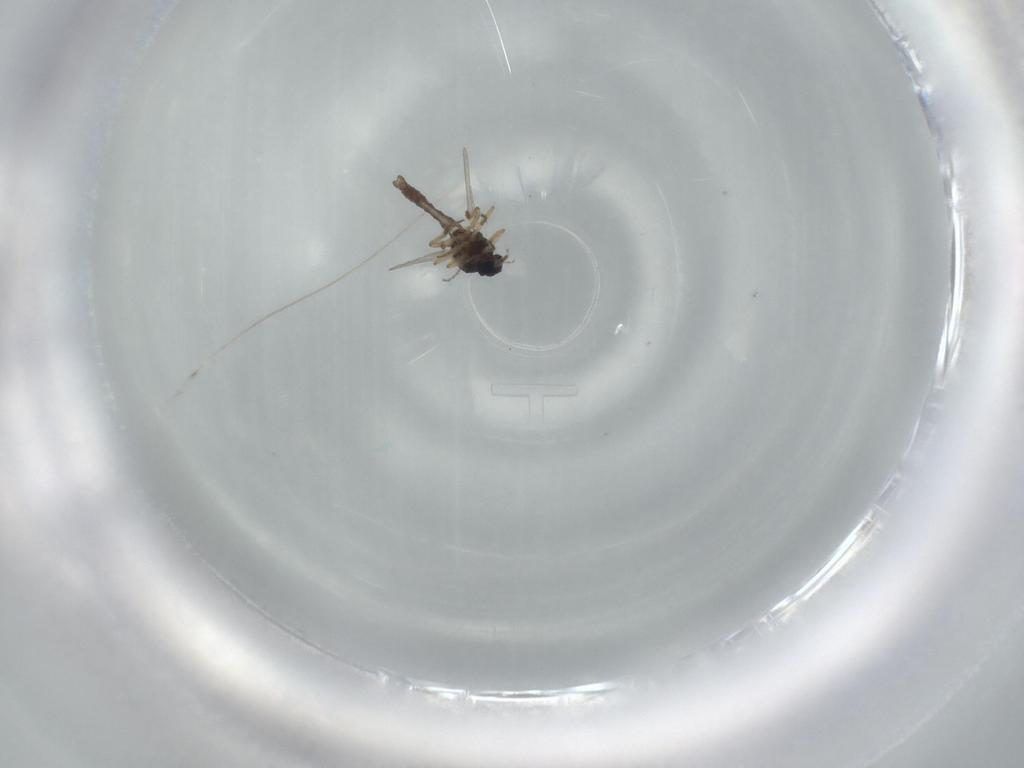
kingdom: Animalia
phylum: Arthropoda
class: Insecta
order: Diptera
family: Ceratopogonidae
